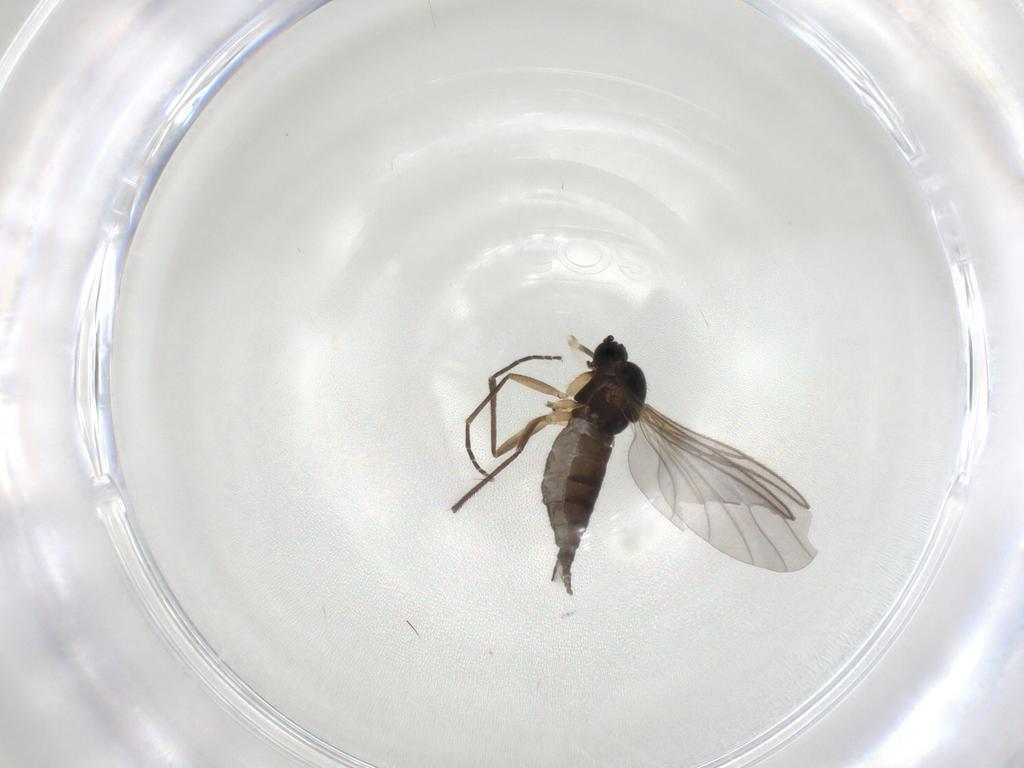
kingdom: Animalia
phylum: Arthropoda
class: Insecta
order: Diptera
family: Sciaridae
